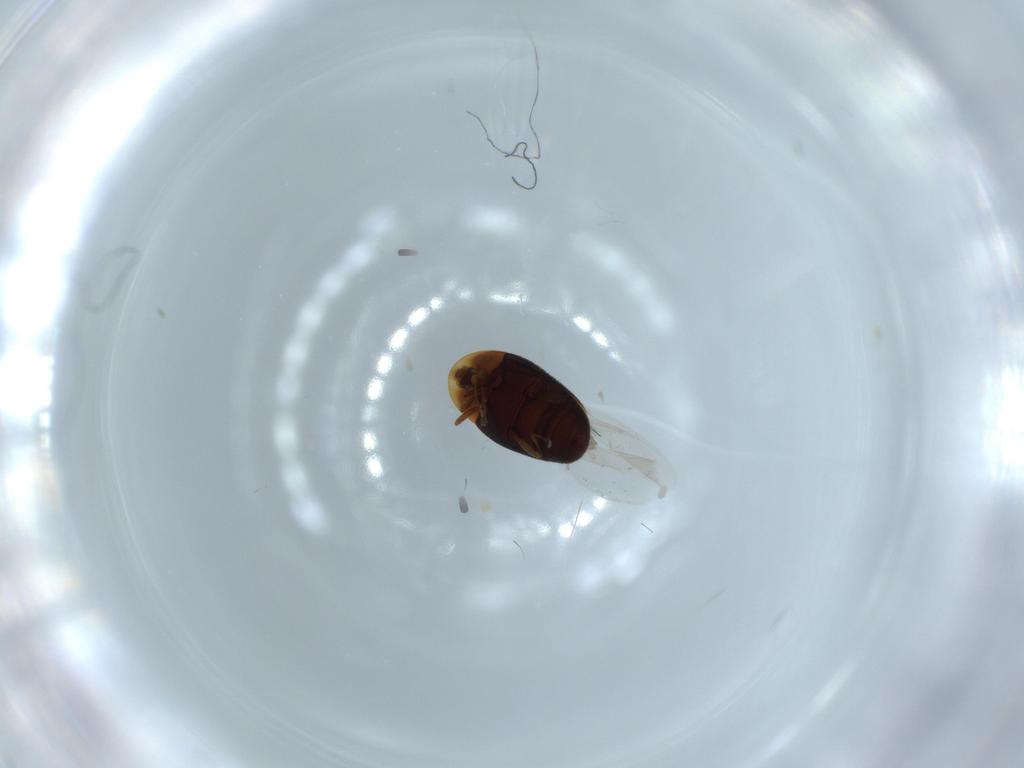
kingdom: Animalia
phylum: Arthropoda
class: Insecta
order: Coleoptera
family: Corylophidae
